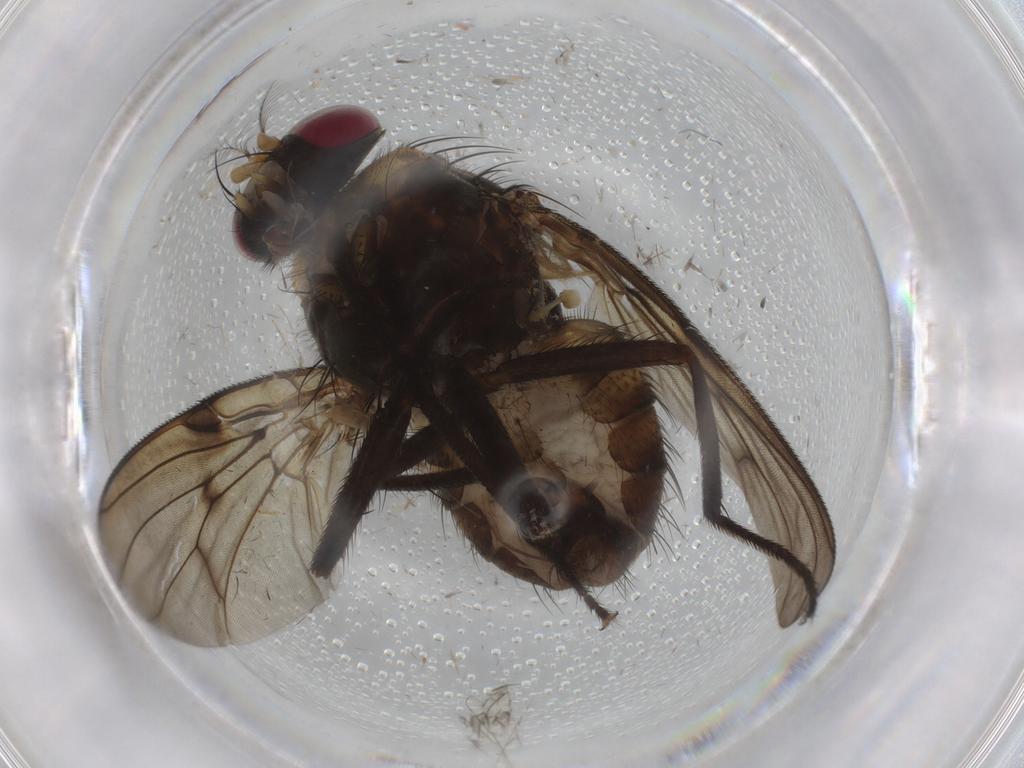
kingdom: Animalia
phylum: Arthropoda
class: Insecta
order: Diptera
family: Muscidae
